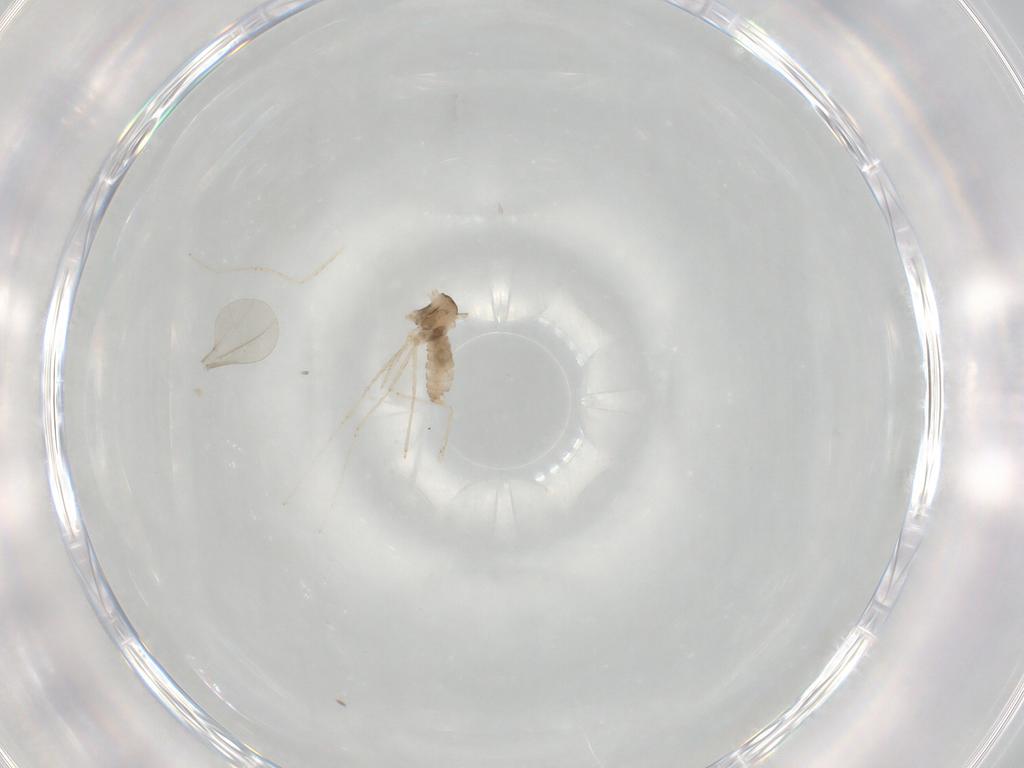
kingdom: Animalia
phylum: Arthropoda
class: Insecta
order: Diptera
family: Cecidomyiidae
